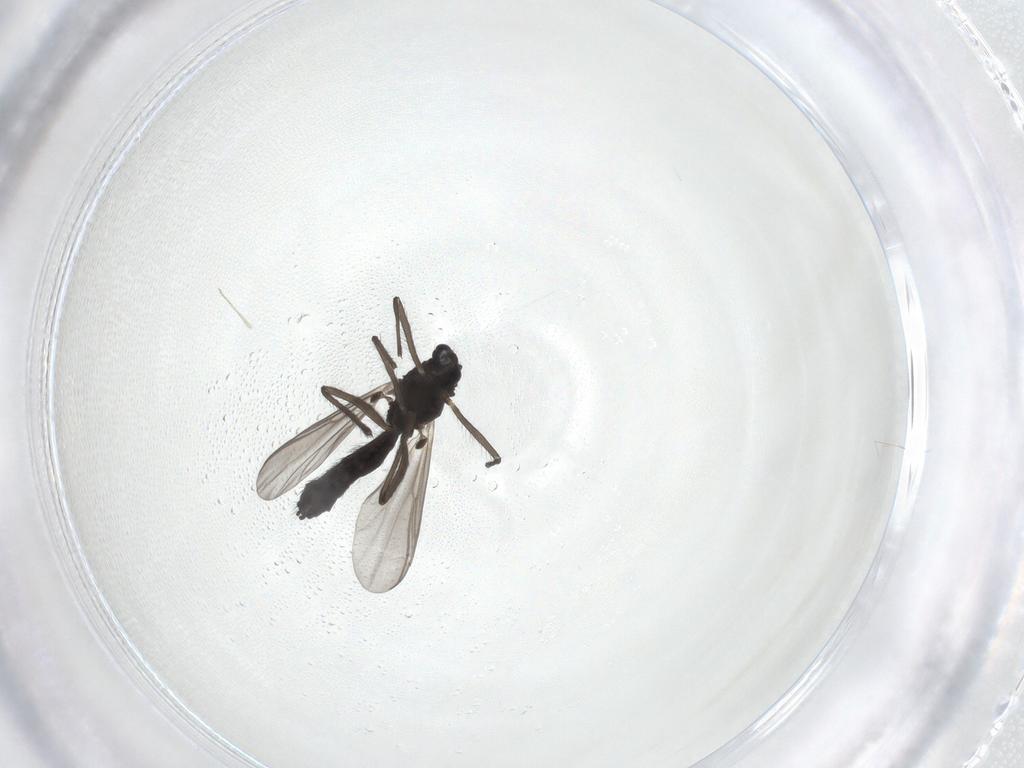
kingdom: Animalia
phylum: Arthropoda
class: Insecta
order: Diptera
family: Chironomidae
